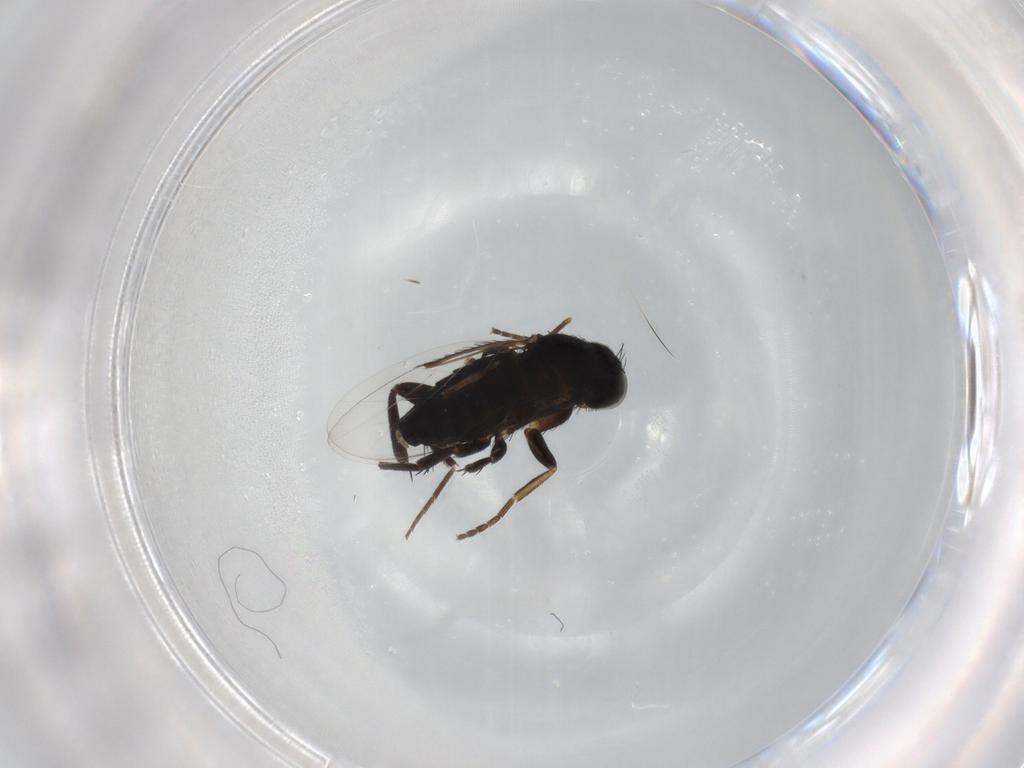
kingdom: Animalia
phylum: Arthropoda
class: Insecta
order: Diptera
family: Phoridae
